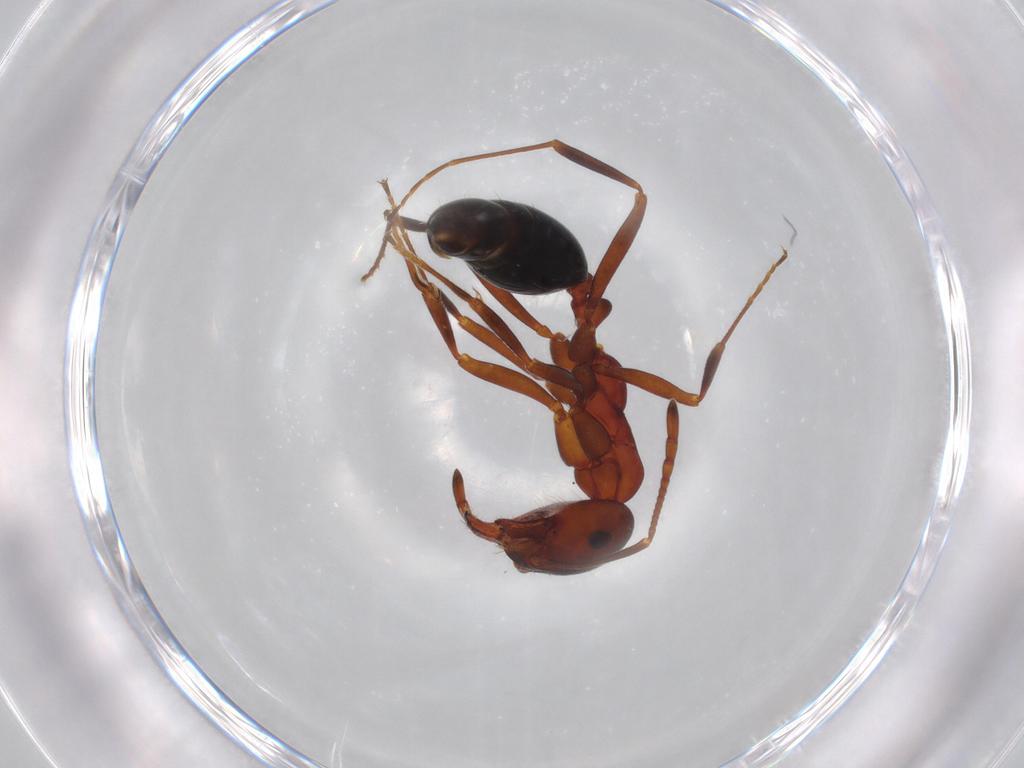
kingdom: Animalia
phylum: Arthropoda
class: Insecta
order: Hymenoptera
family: Formicidae
